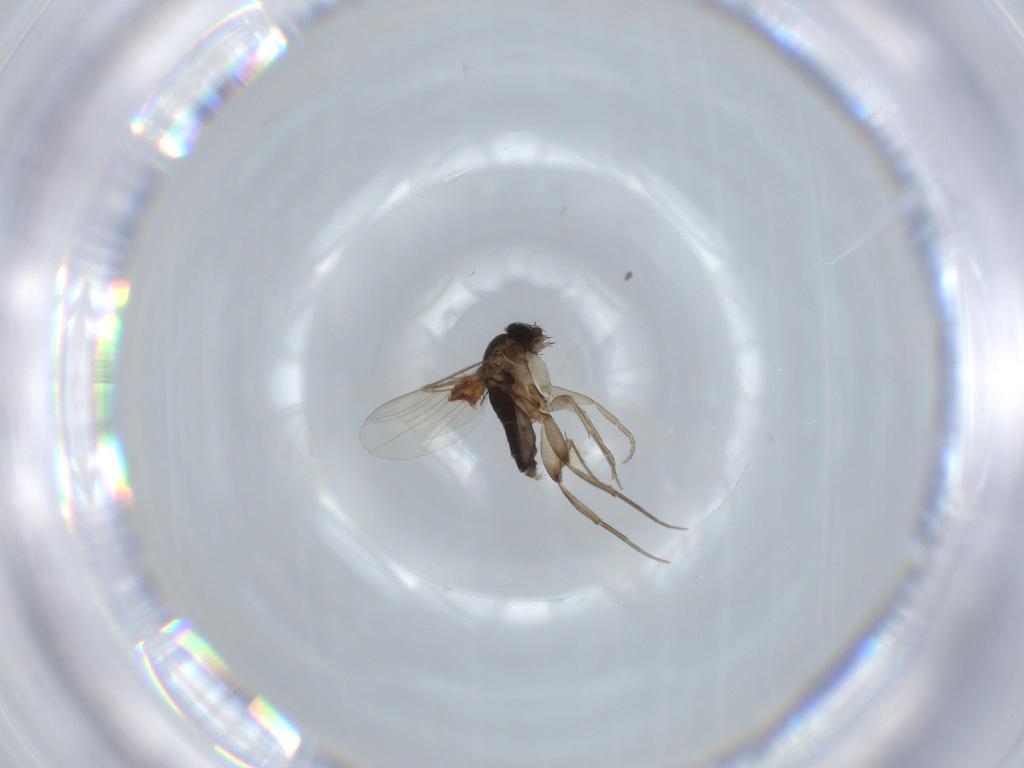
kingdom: Animalia
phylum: Arthropoda
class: Insecta
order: Diptera
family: Phoridae
